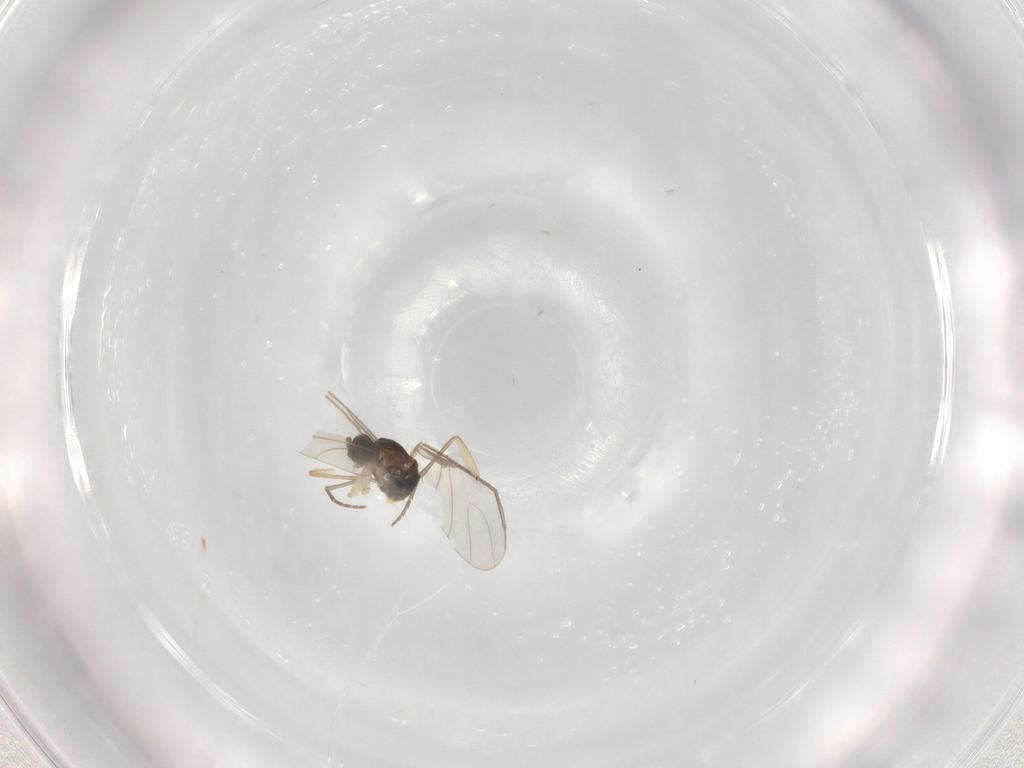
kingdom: Animalia
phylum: Arthropoda
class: Insecta
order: Diptera
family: Sciaridae
